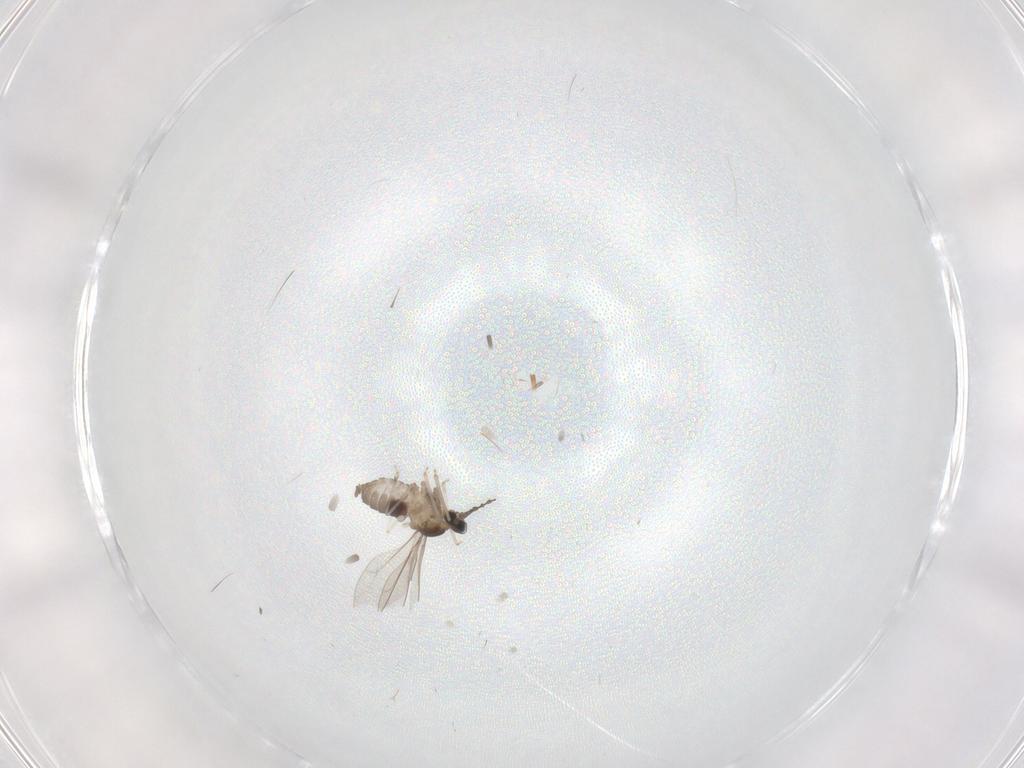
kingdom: Animalia
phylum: Arthropoda
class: Insecta
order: Diptera
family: Cecidomyiidae
